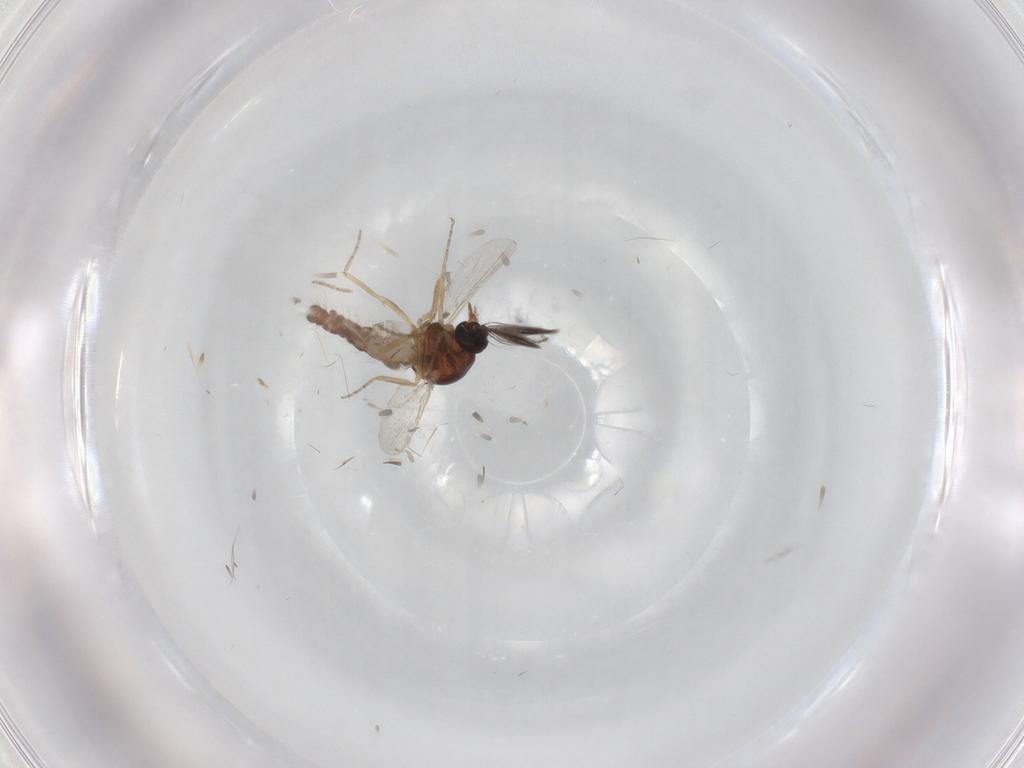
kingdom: Animalia
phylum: Arthropoda
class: Insecta
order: Diptera
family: Ceratopogonidae
